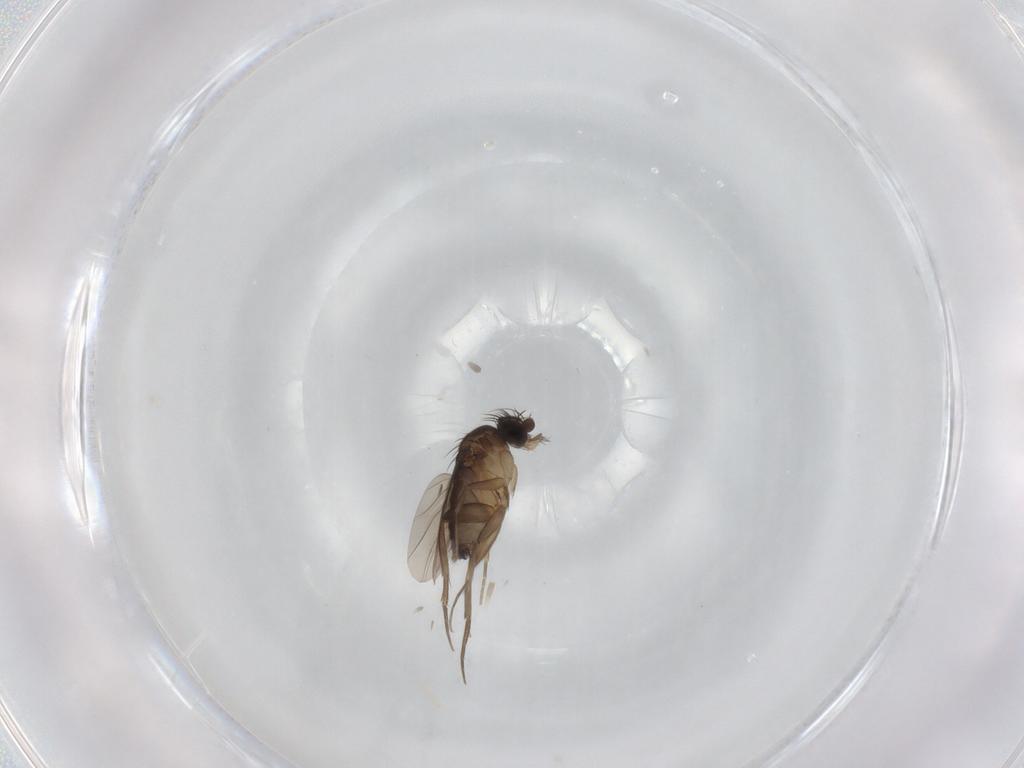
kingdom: Animalia
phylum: Arthropoda
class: Insecta
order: Diptera
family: Phoridae
